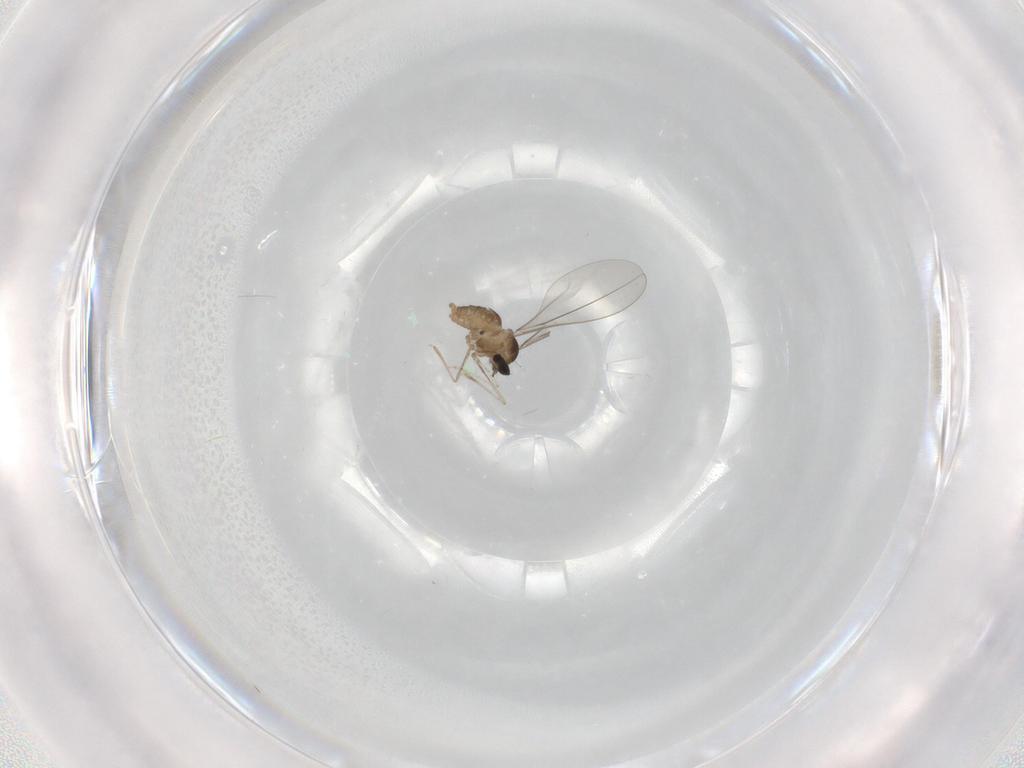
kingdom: Animalia
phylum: Arthropoda
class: Insecta
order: Diptera
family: Cecidomyiidae
